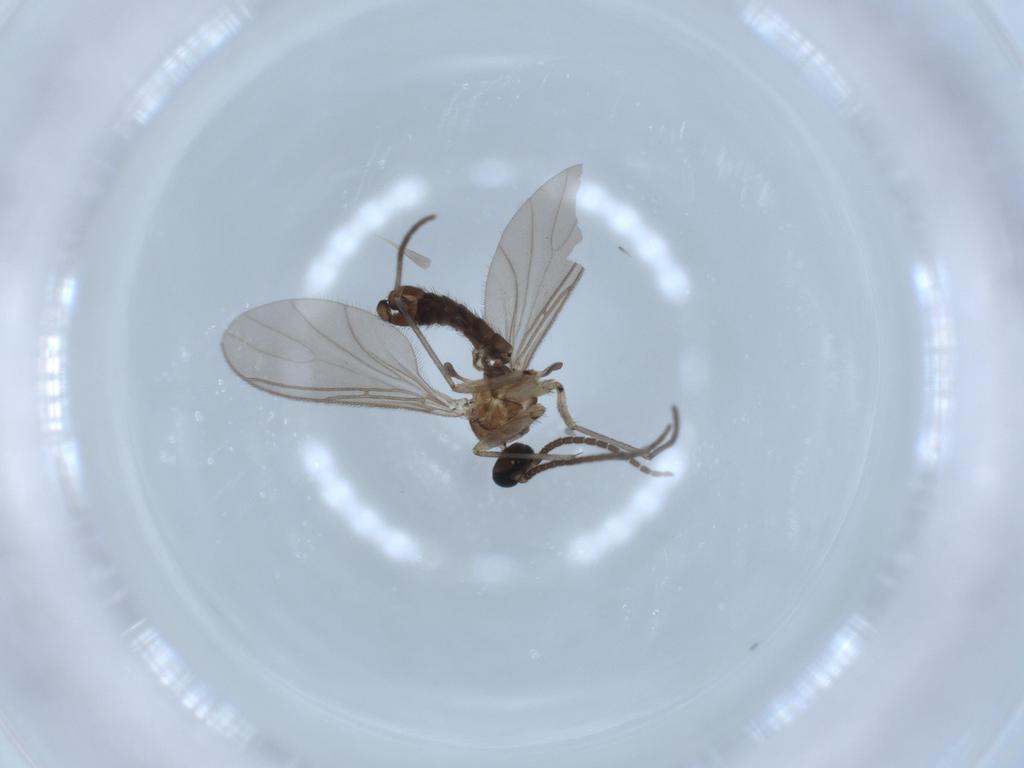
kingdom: Animalia
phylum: Arthropoda
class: Insecta
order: Diptera
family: Sciaridae
